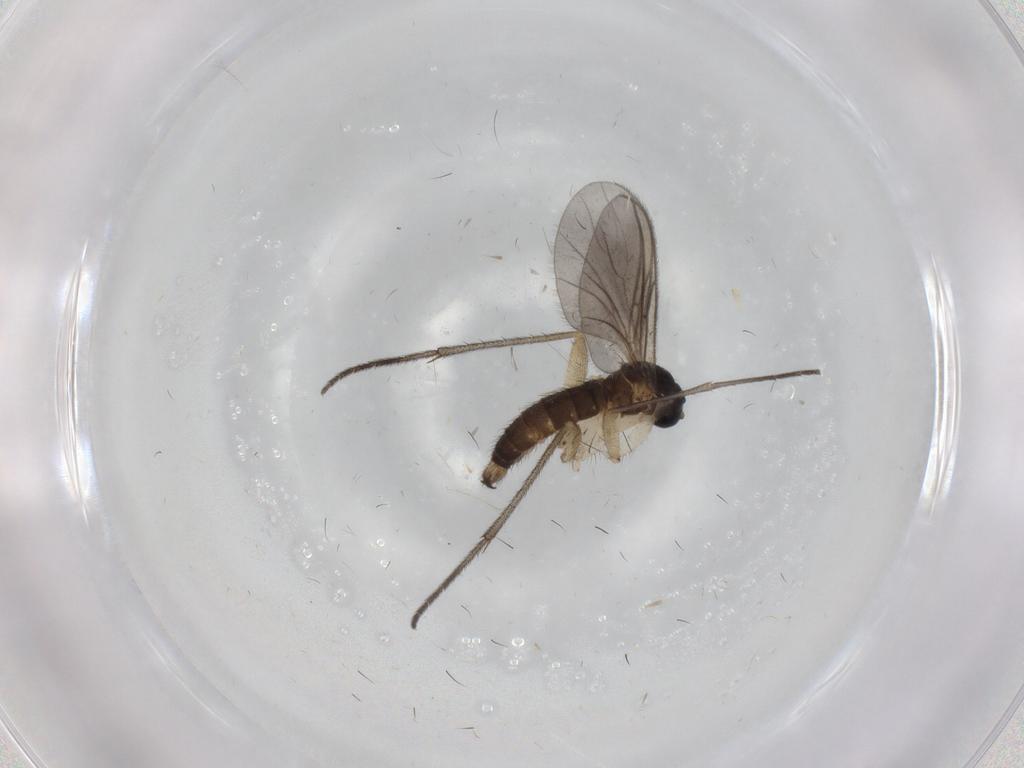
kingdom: Animalia
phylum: Arthropoda
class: Insecta
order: Diptera
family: Sciaridae
